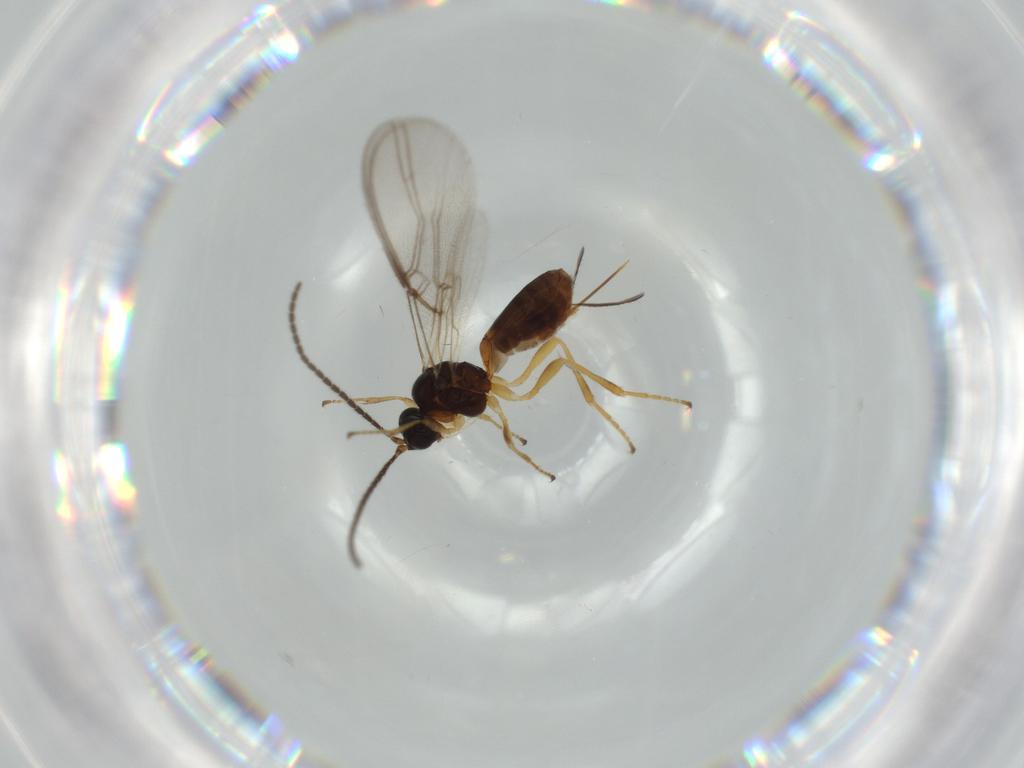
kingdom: Animalia
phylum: Arthropoda
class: Insecta
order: Hymenoptera
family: Braconidae
